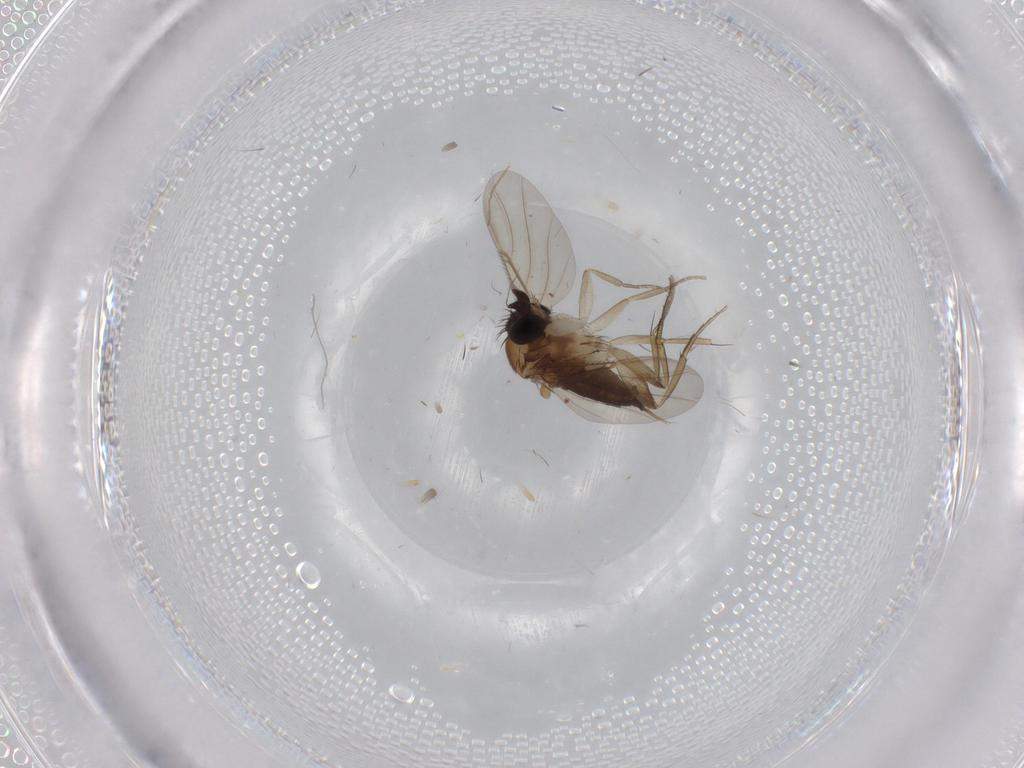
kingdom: Animalia
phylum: Arthropoda
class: Insecta
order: Diptera
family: Phoridae
